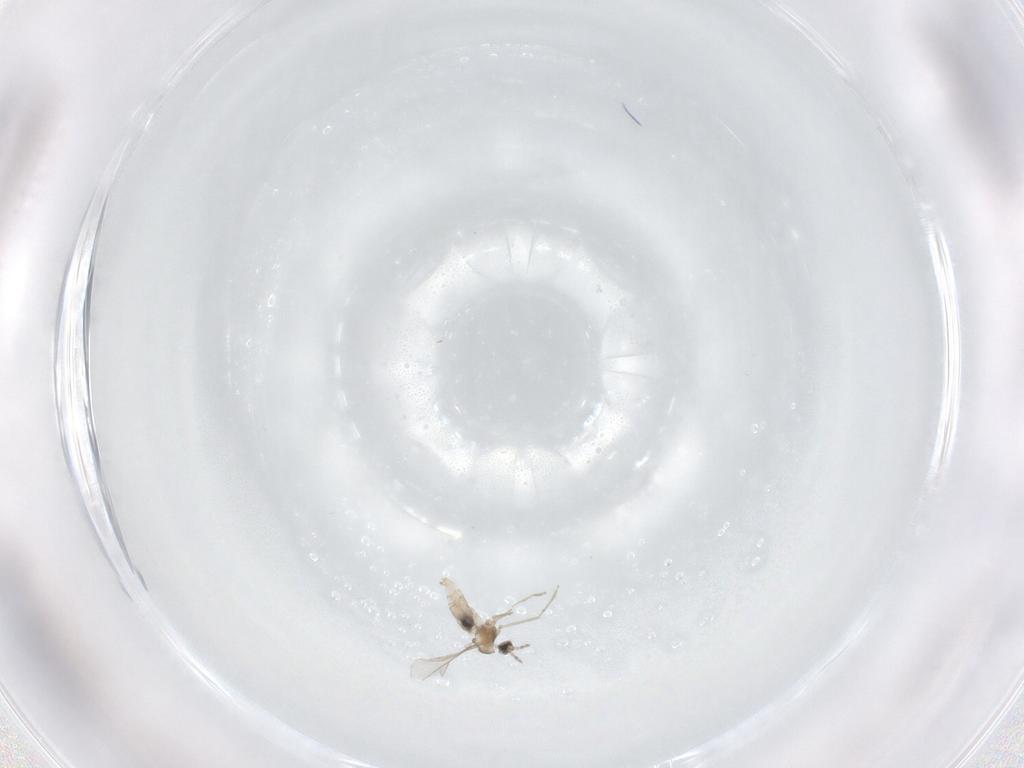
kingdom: Animalia
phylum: Arthropoda
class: Insecta
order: Diptera
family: Cecidomyiidae
